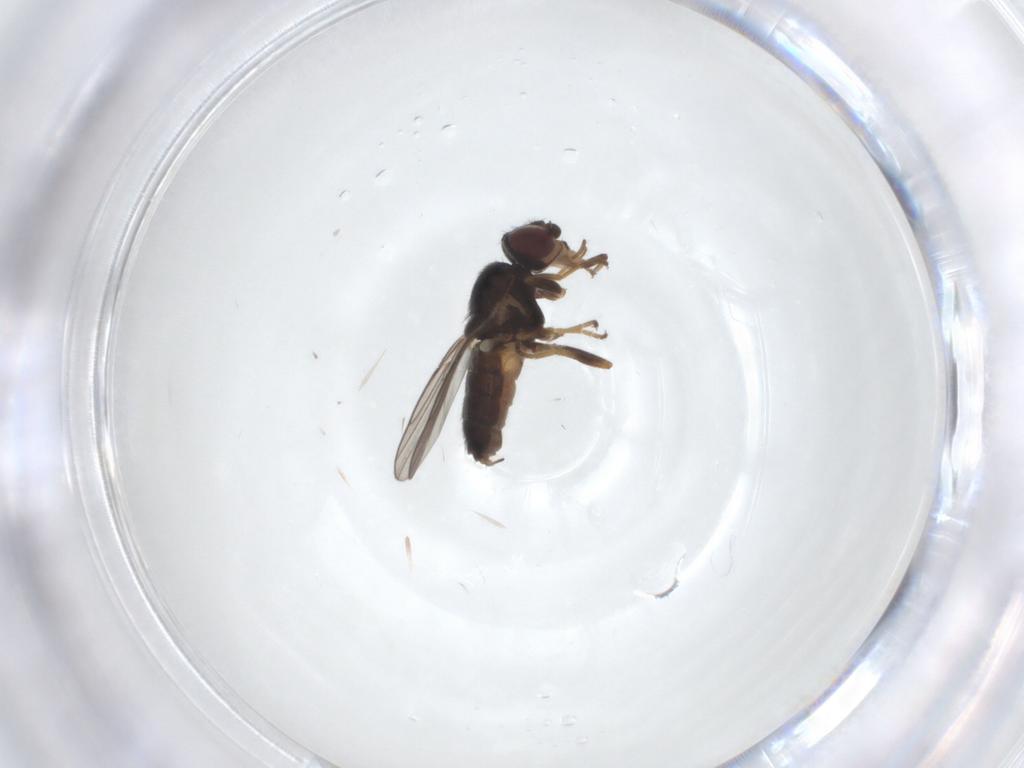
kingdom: Animalia
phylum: Arthropoda
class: Insecta
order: Diptera
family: Chloropidae
